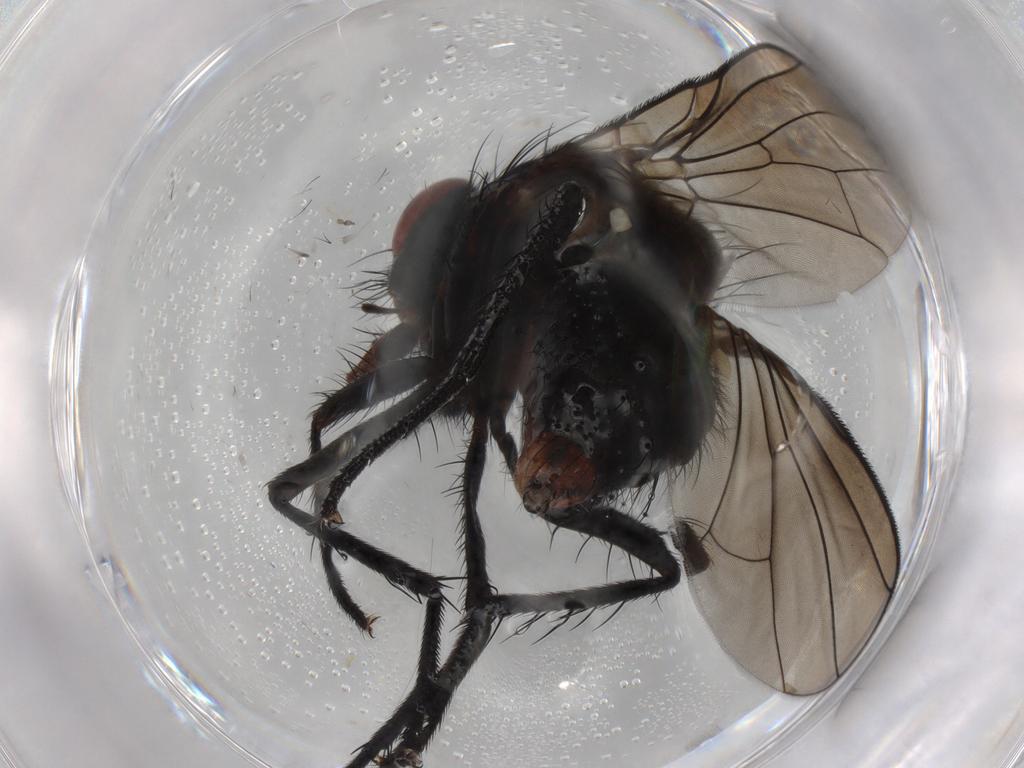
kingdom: Animalia
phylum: Arthropoda
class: Insecta
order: Diptera
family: Anthomyiidae
